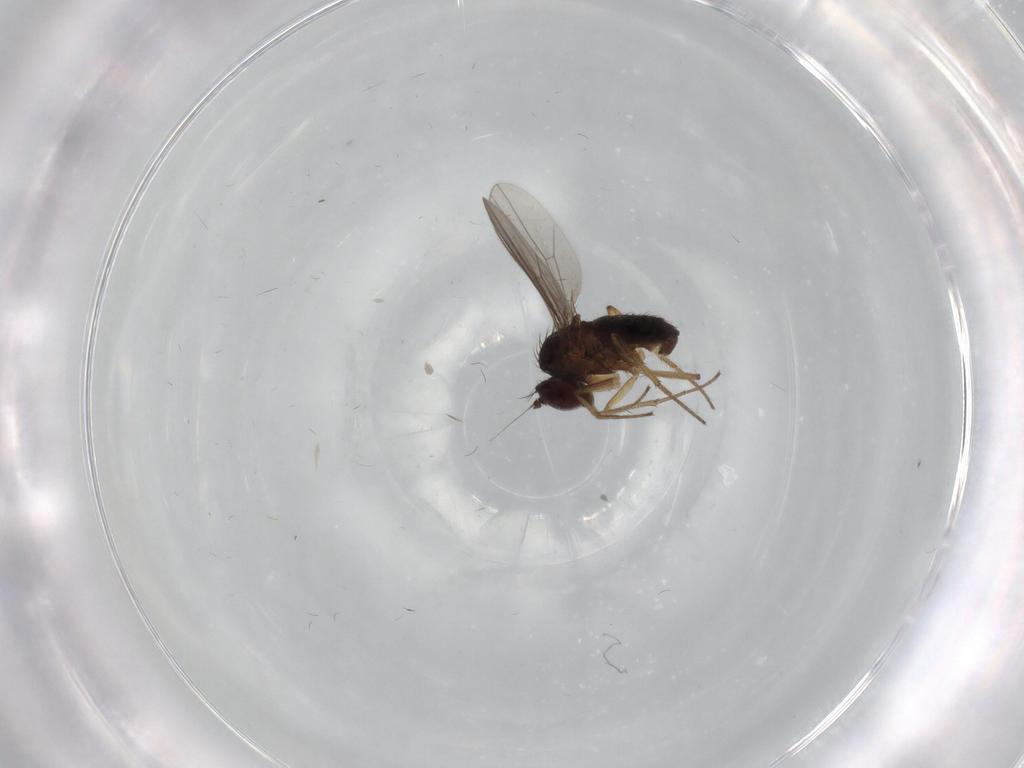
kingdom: Animalia
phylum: Arthropoda
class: Insecta
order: Diptera
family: Dolichopodidae
